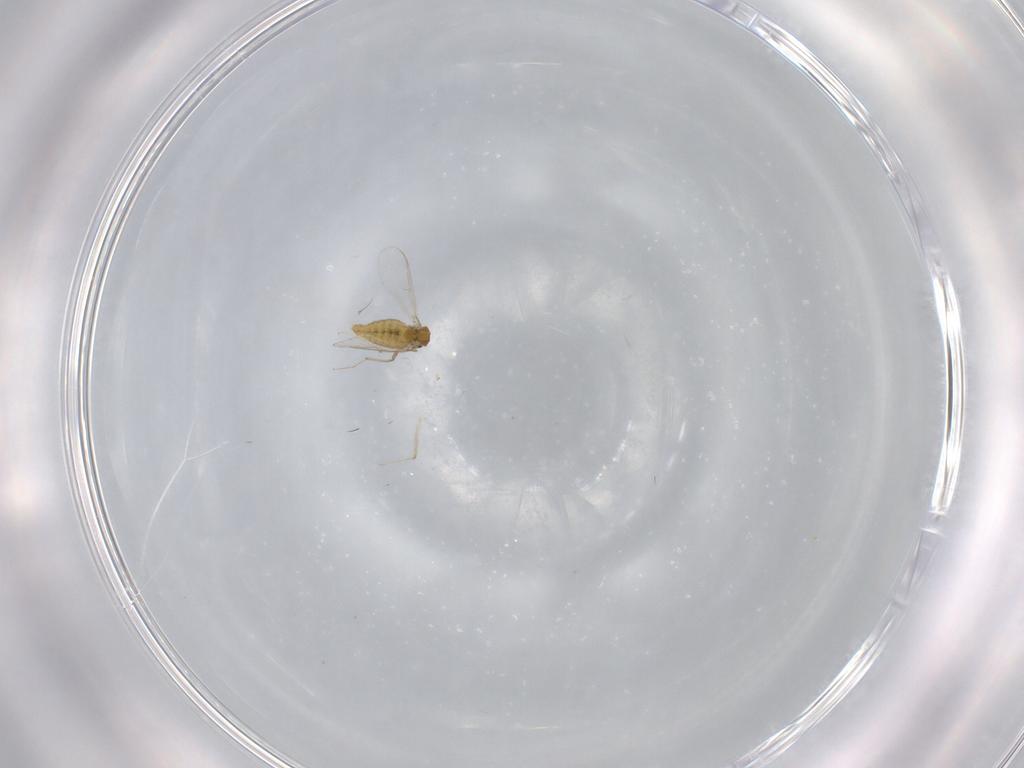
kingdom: Animalia
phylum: Arthropoda
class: Insecta
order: Diptera
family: Chironomidae
